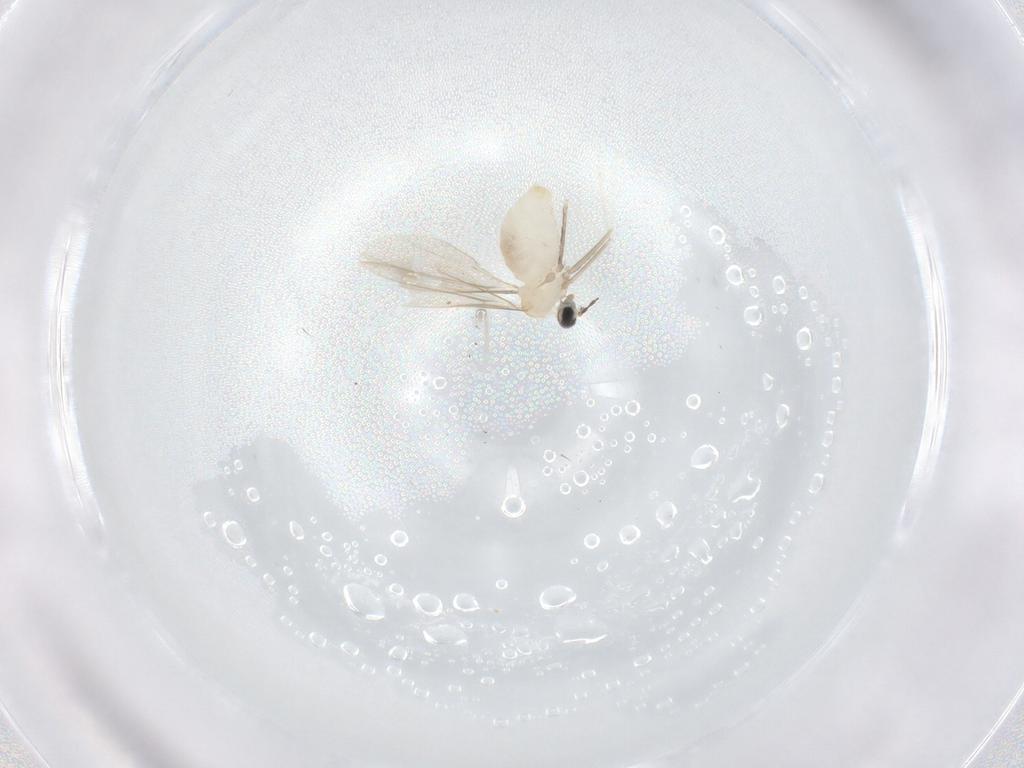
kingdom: Animalia
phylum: Arthropoda
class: Insecta
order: Diptera
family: Cecidomyiidae
